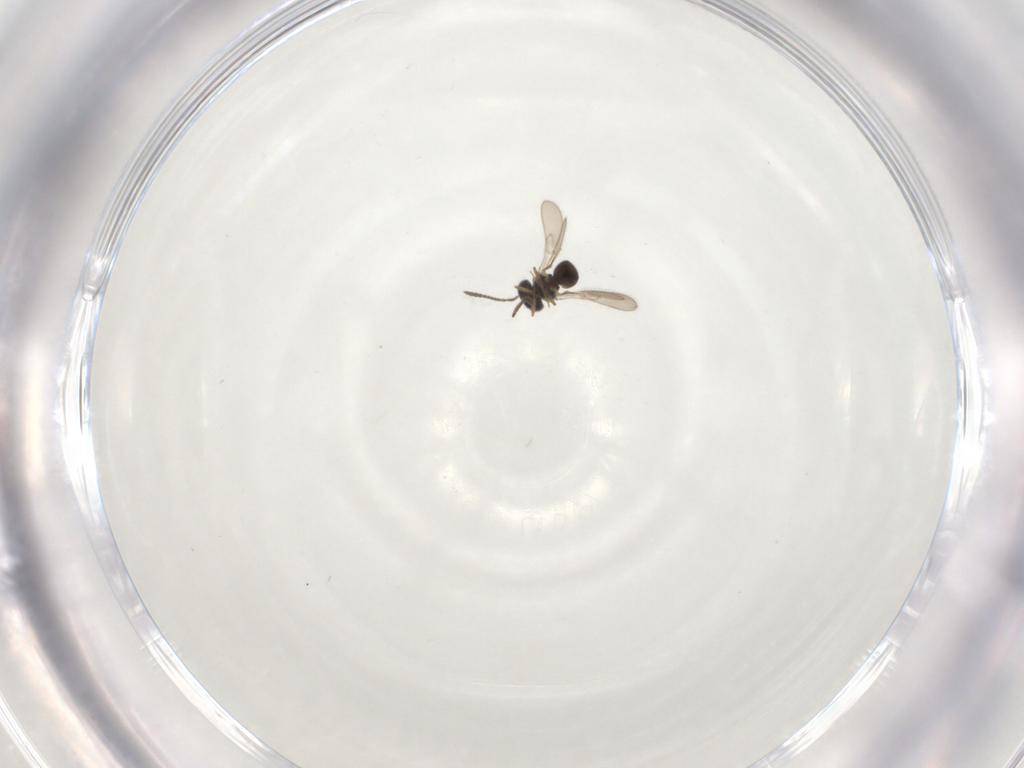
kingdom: Animalia
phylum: Arthropoda
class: Insecta
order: Hymenoptera
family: Scelionidae
